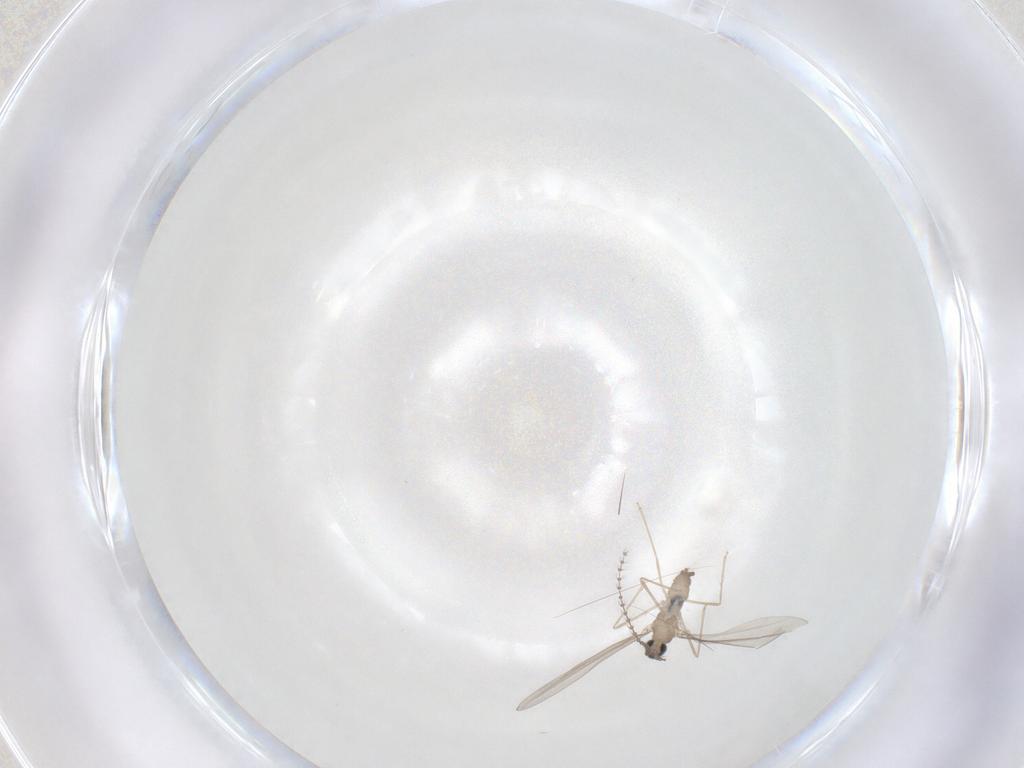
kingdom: Animalia
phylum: Arthropoda
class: Insecta
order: Diptera
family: Cecidomyiidae
